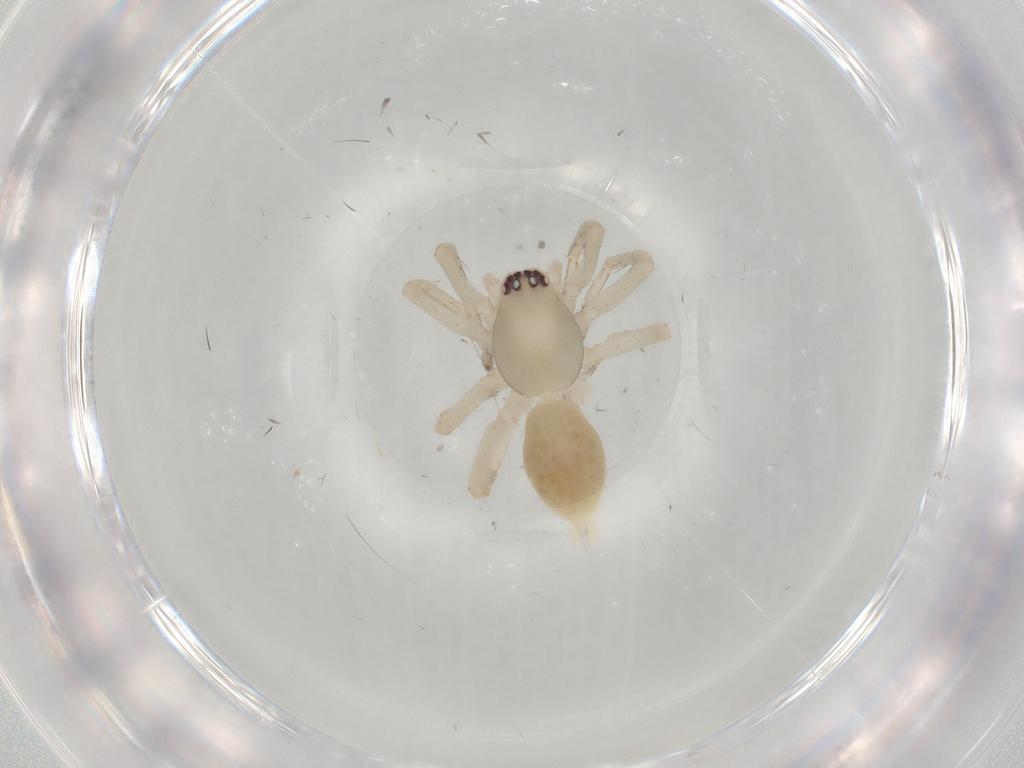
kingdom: Animalia
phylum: Arthropoda
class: Arachnida
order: Araneae
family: Clubionidae
